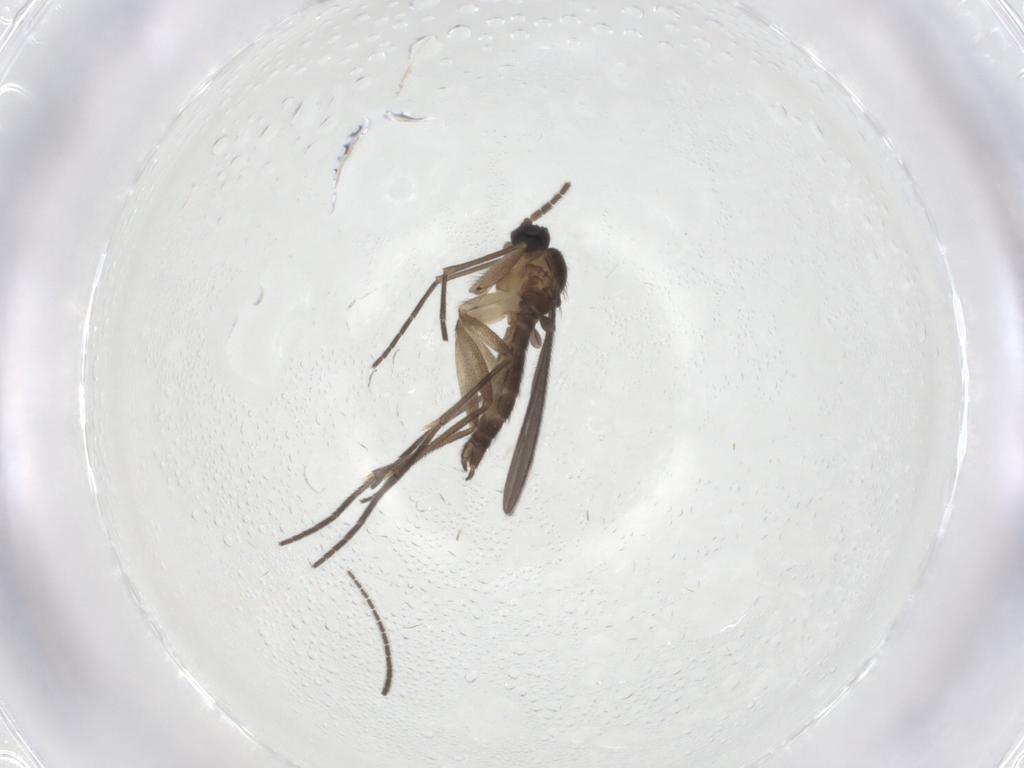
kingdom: Animalia
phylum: Arthropoda
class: Insecta
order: Diptera
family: Sciaridae
